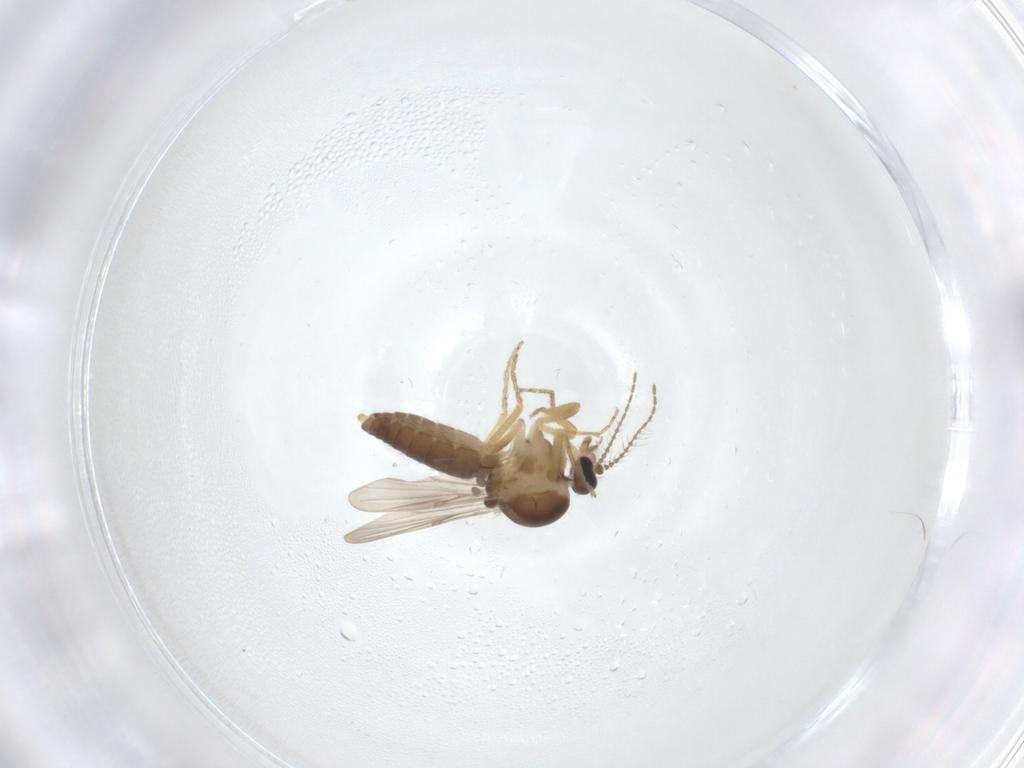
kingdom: Animalia
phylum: Arthropoda
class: Insecta
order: Diptera
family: Ceratopogonidae
